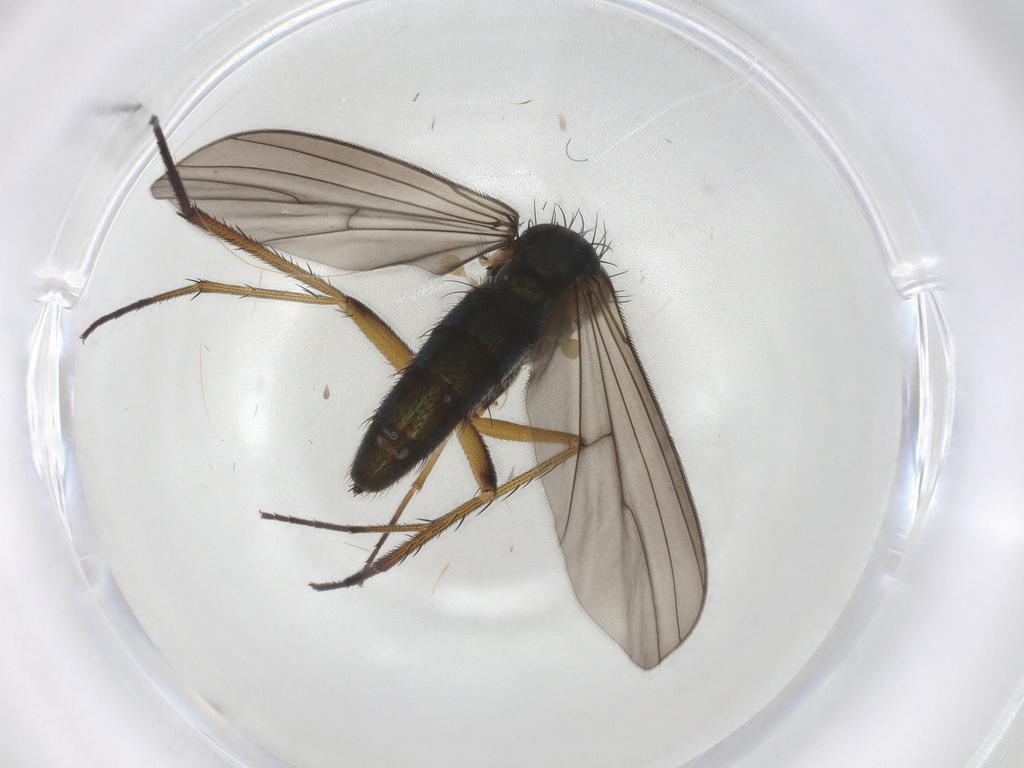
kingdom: Animalia
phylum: Arthropoda
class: Insecta
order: Diptera
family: Dolichopodidae
